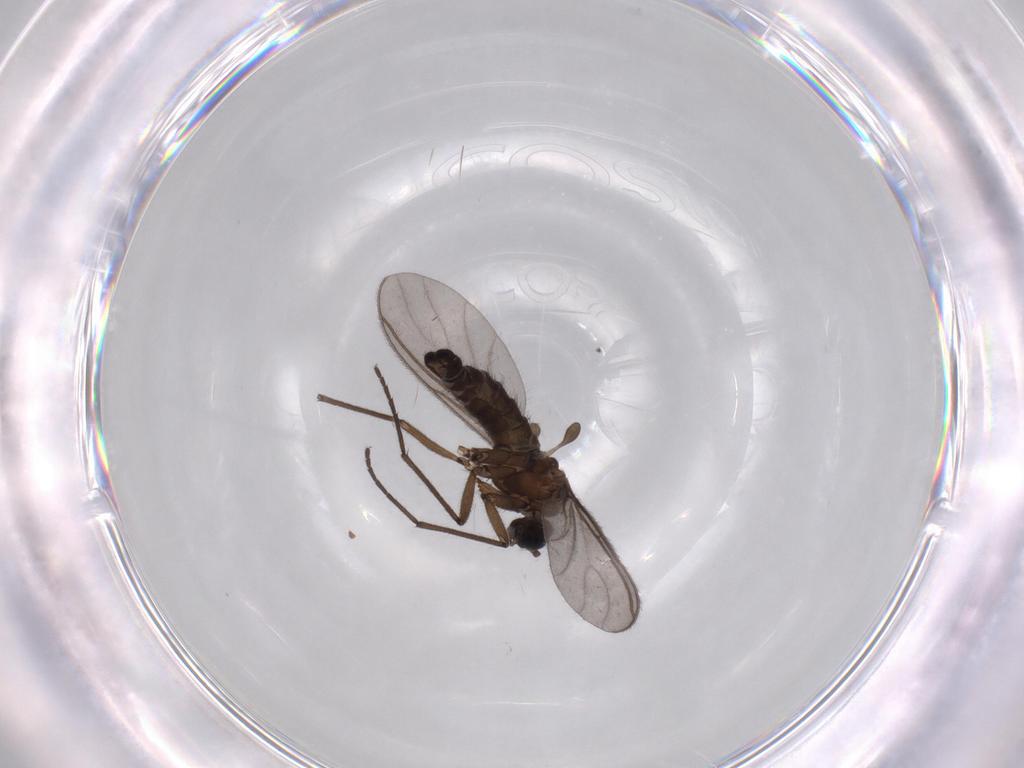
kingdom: Animalia
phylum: Arthropoda
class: Insecta
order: Diptera
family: Sciaridae
